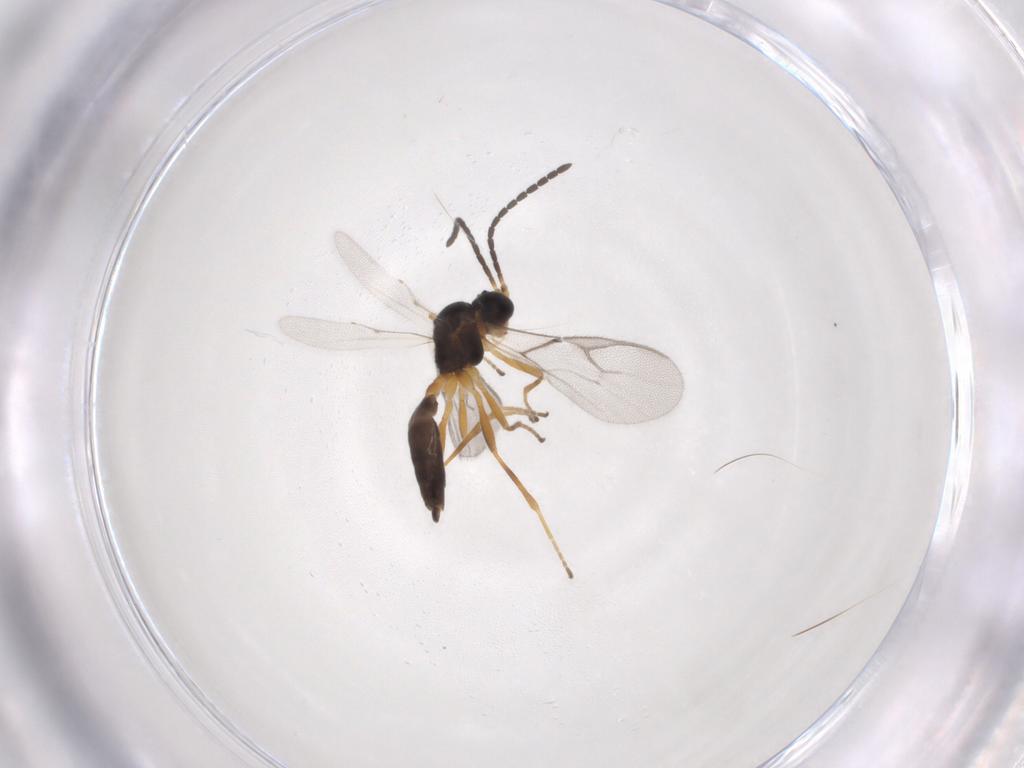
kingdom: Animalia
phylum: Arthropoda
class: Insecta
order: Hymenoptera
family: Braconidae
